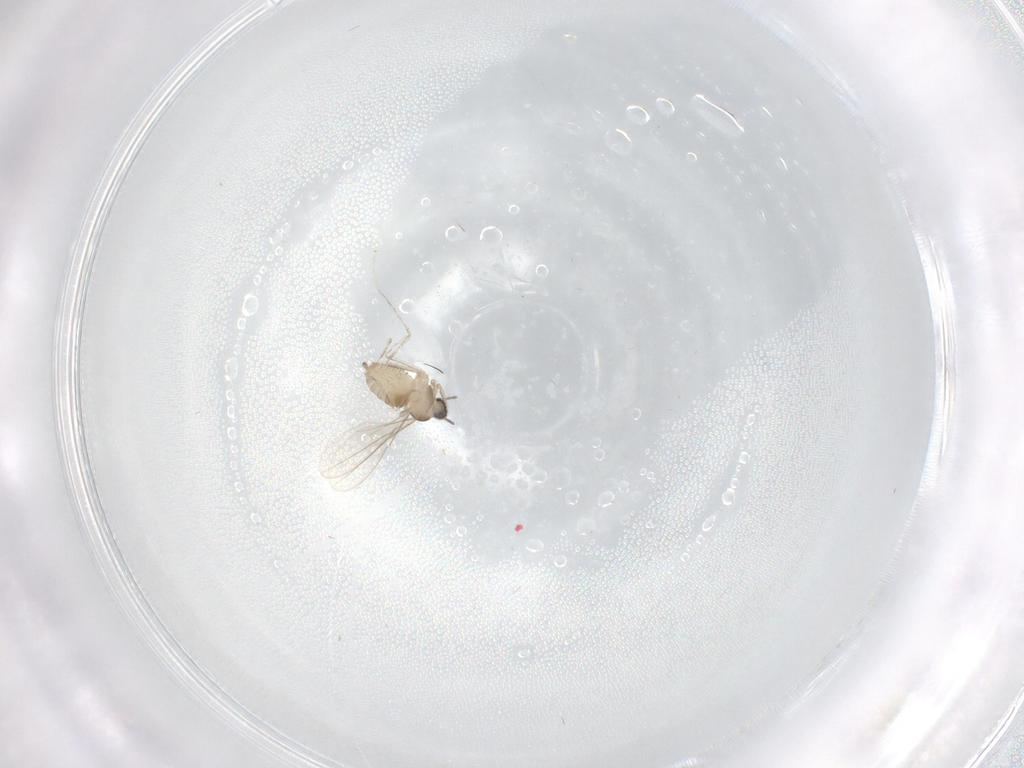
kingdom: Animalia
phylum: Arthropoda
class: Insecta
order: Diptera
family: Cecidomyiidae
